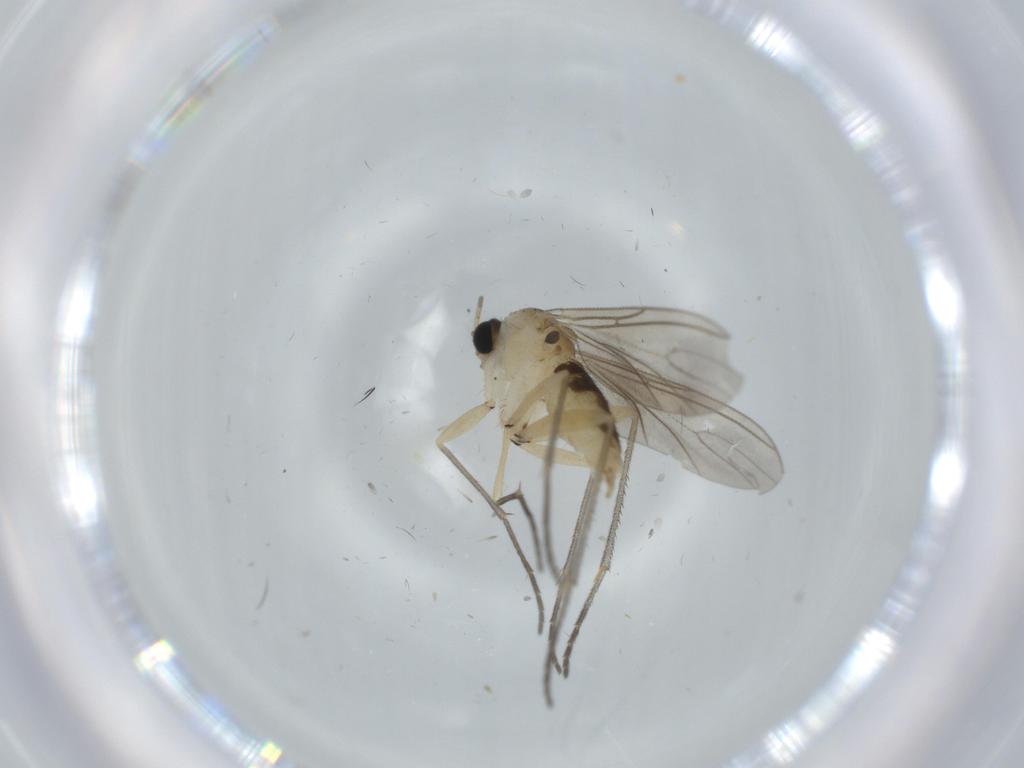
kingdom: Animalia
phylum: Arthropoda
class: Insecta
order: Diptera
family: Sciaridae
